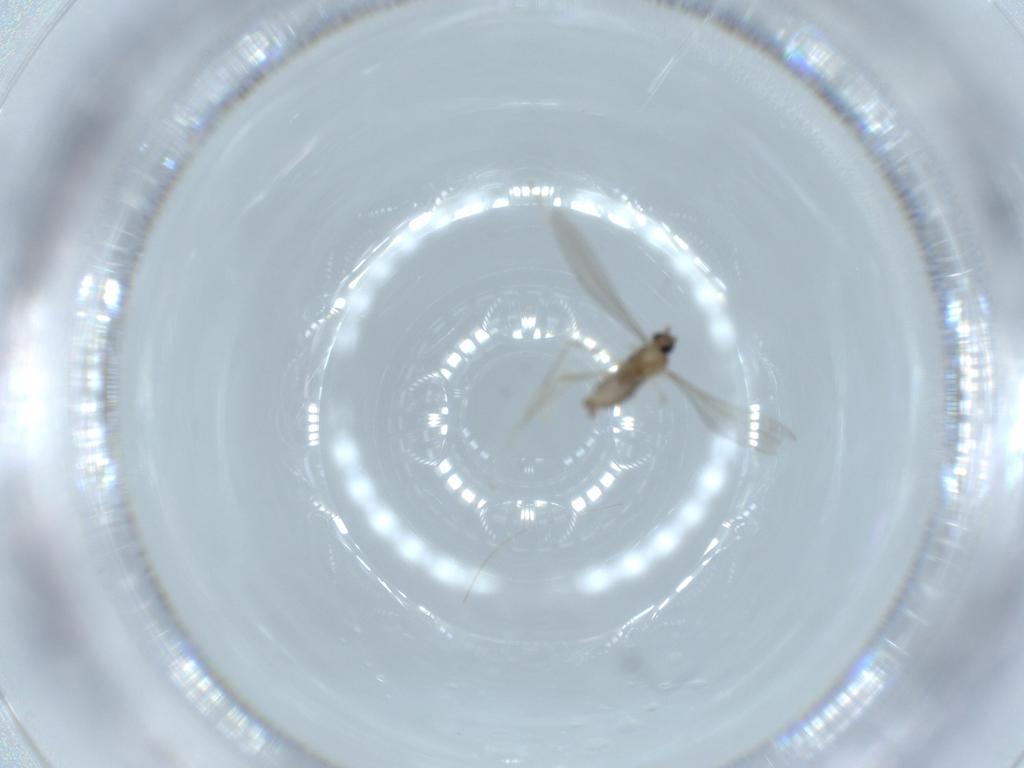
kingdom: Animalia
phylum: Arthropoda
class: Insecta
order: Diptera
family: Sciaridae
